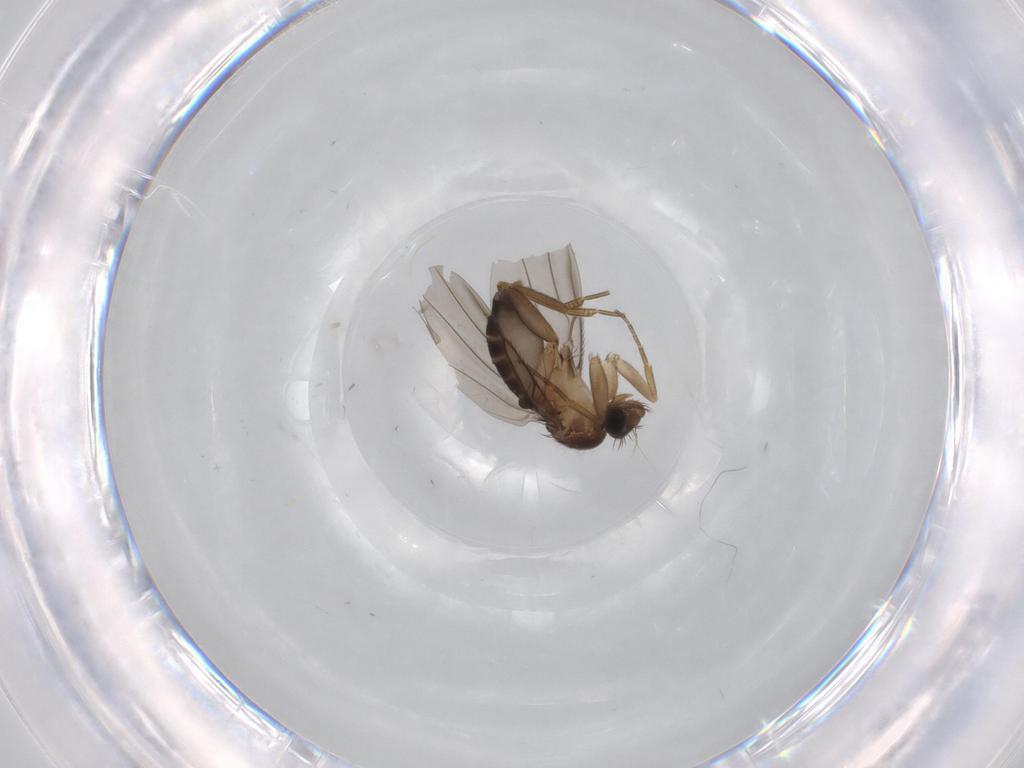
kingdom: Animalia
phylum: Arthropoda
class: Insecta
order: Diptera
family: Phoridae
